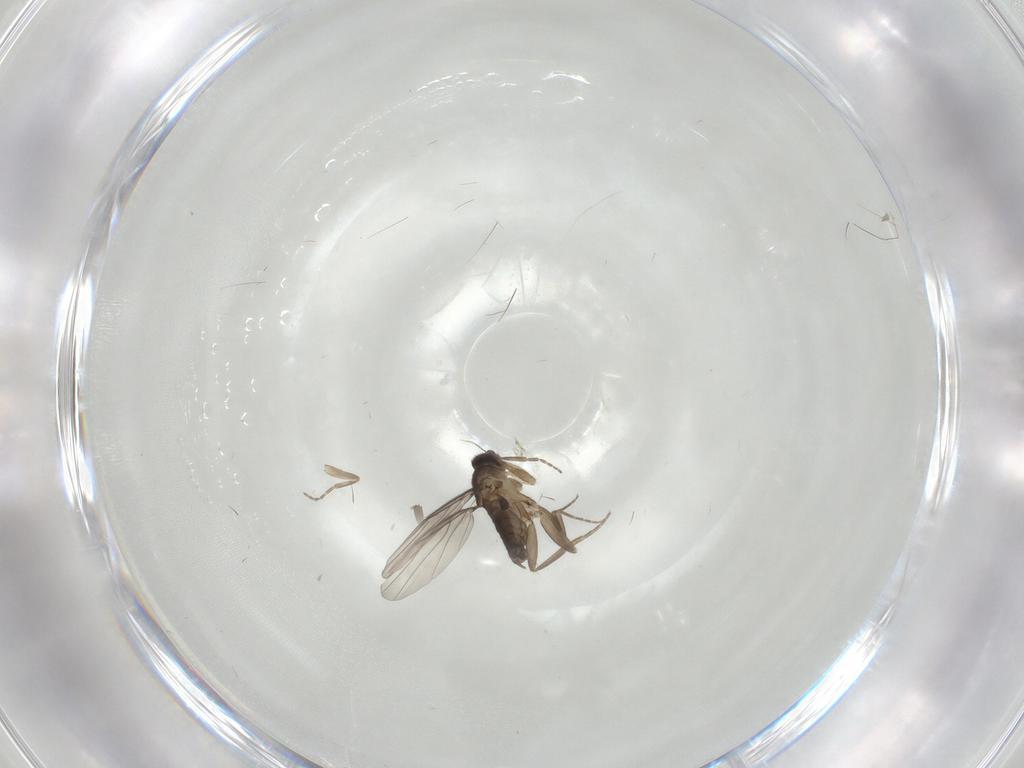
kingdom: Animalia
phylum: Arthropoda
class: Insecta
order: Diptera
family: Phoridae
